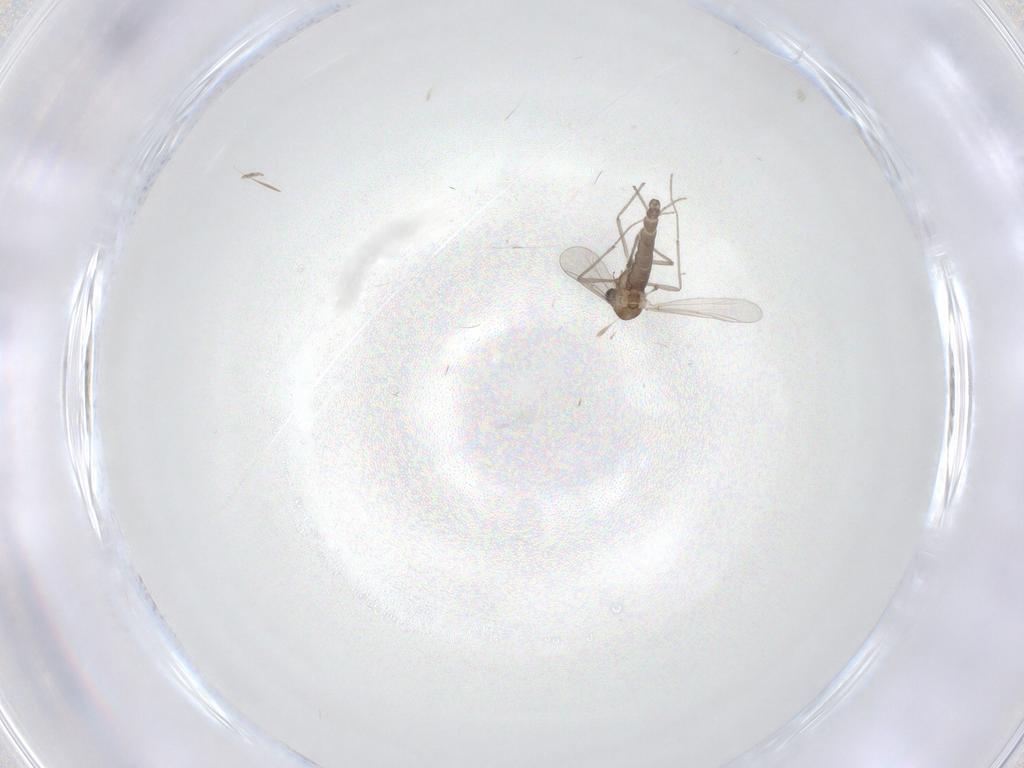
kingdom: Animalia
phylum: Arthropoda
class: Insecta
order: Diptera
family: Chironomidae
